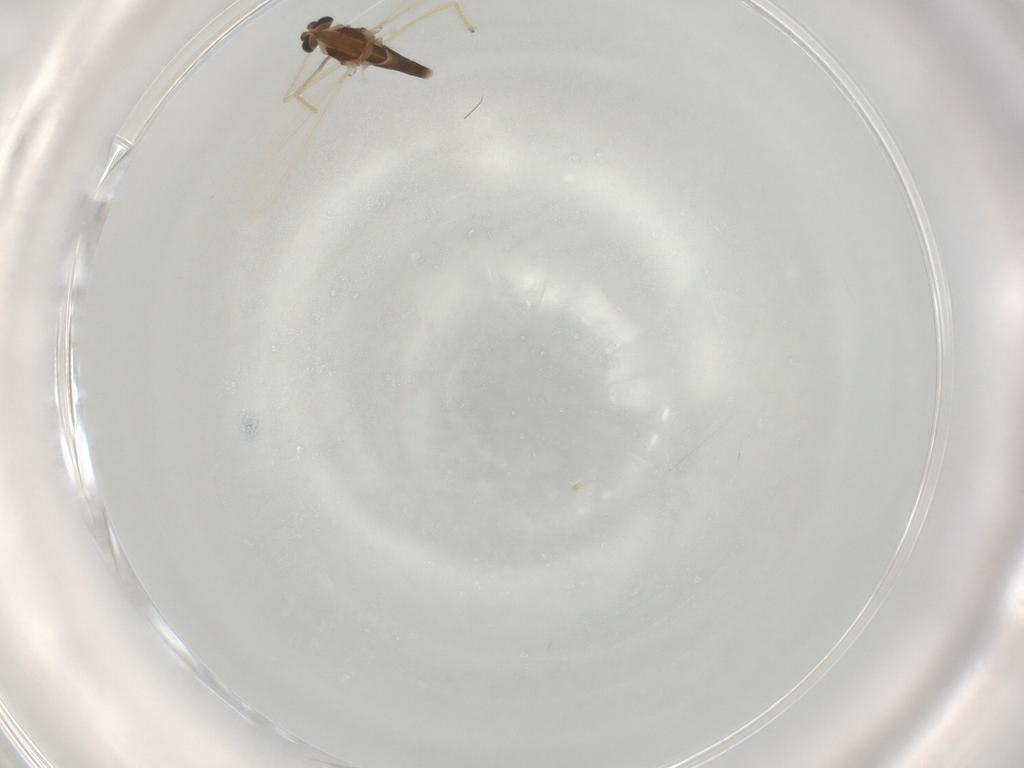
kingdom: Animalia
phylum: Arthropoda
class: Insecta
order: Diptera
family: Chironomidae
